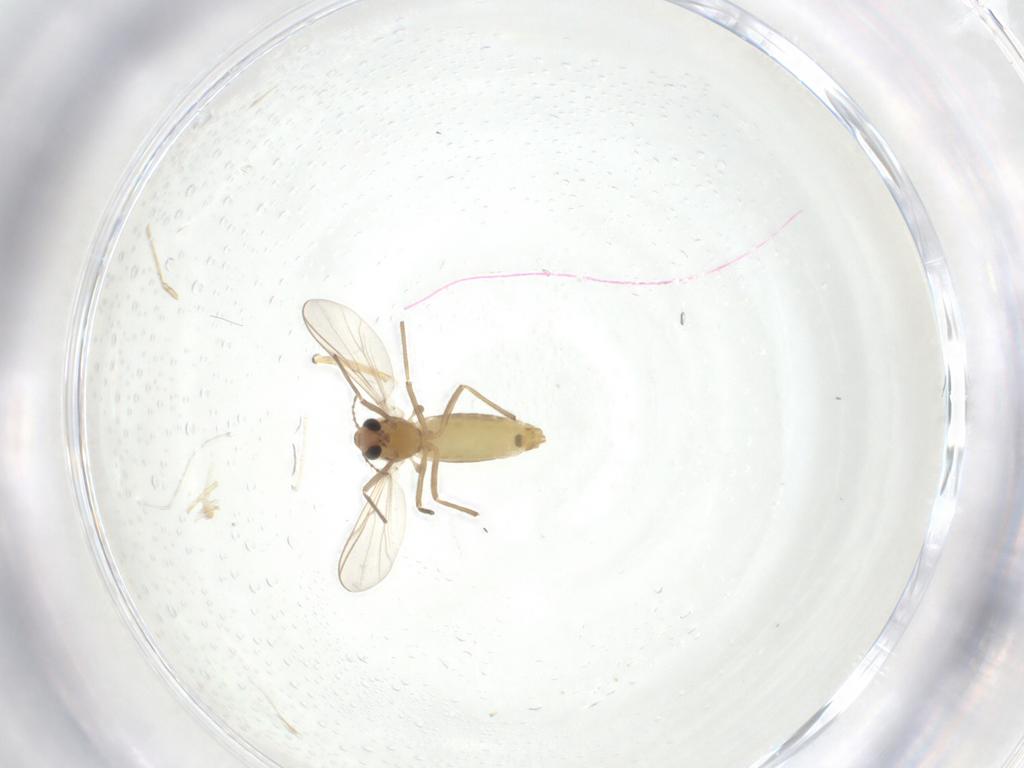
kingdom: Animalia
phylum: Arthropoda
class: Insecta
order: Diptera
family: Chironomidae
